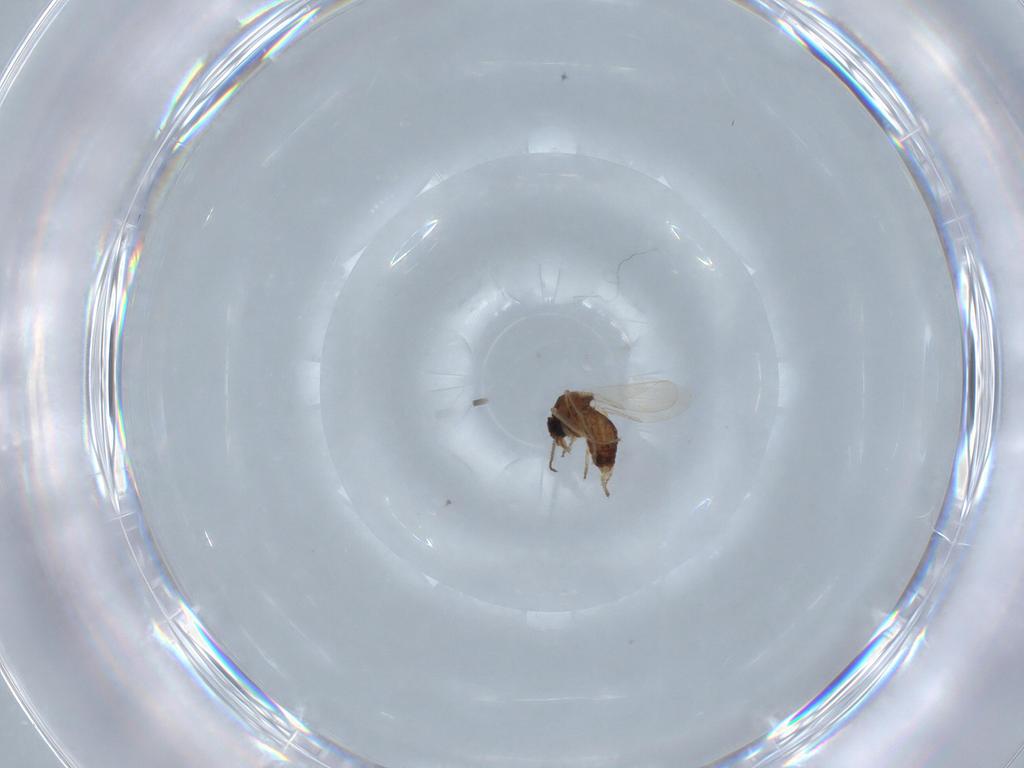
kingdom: Animalia
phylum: Arthropoda
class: Insecta
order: Diptera
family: Ceratopogonidae
